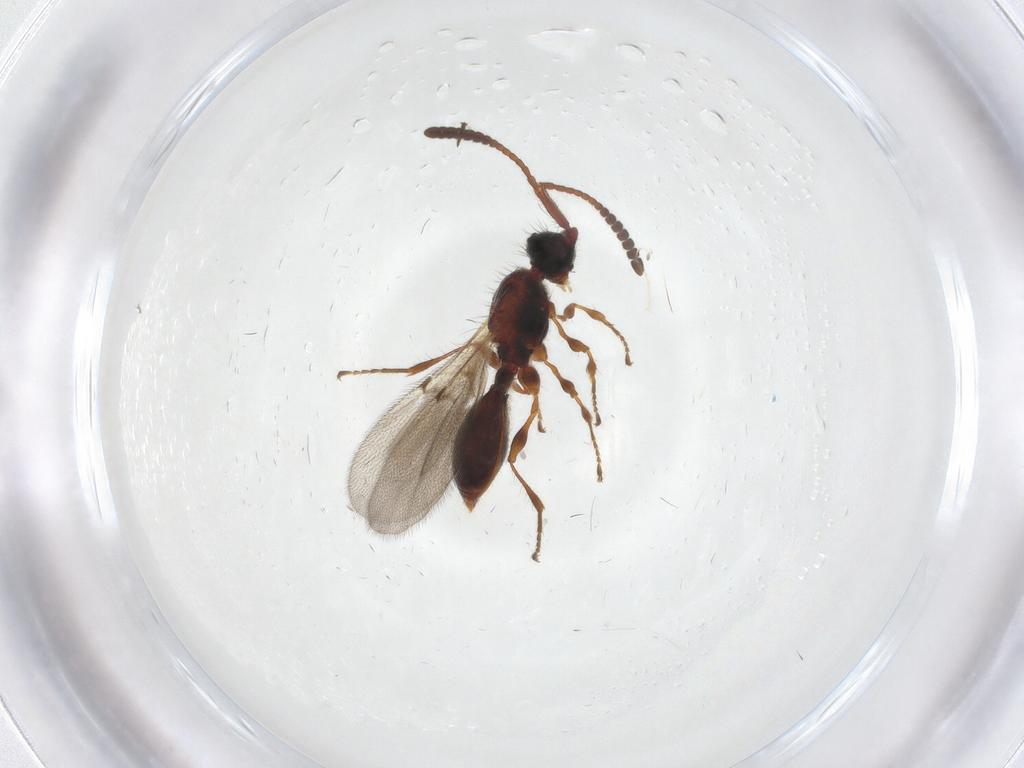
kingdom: Animalia
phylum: Arthropoda
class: Insecta
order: Hymenoptera
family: Diapriidae
